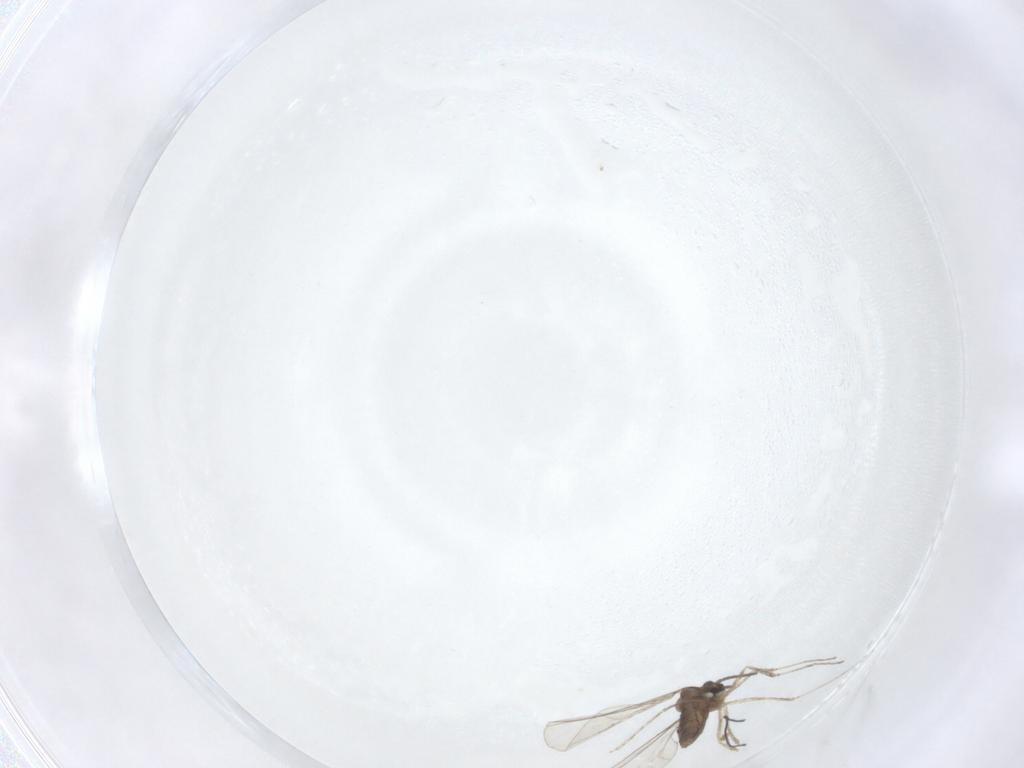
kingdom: Animalia
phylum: Arthropoda
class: Insecta
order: Diptera
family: Cecidomyiidae
